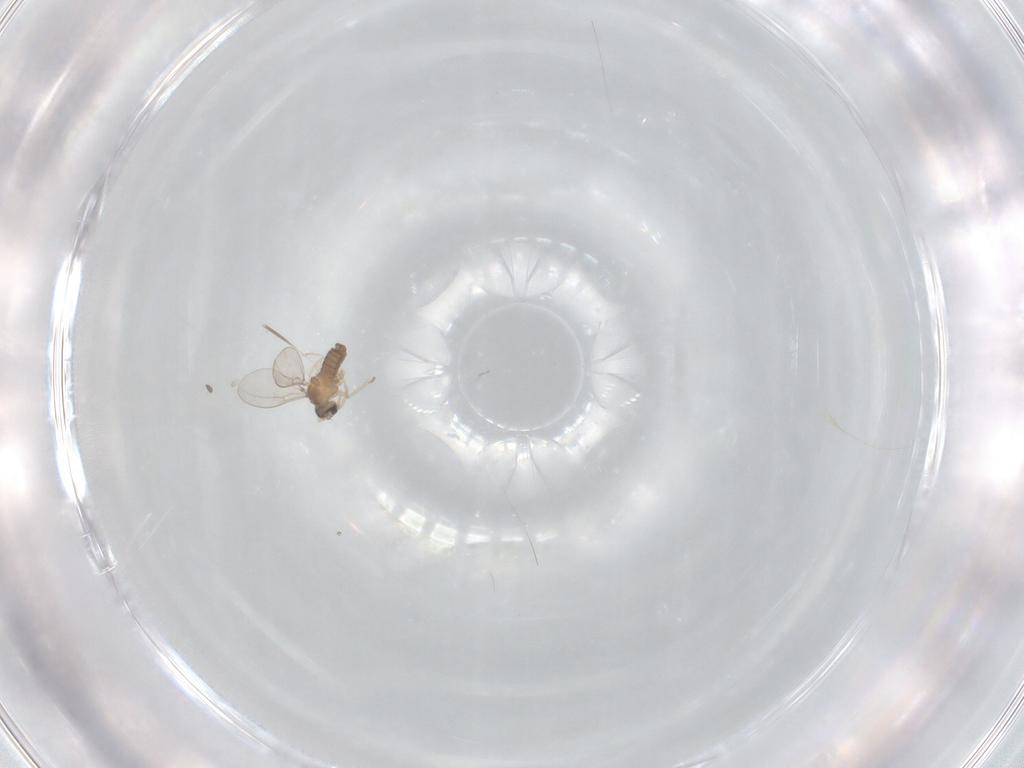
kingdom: Animalia
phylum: Arthropoda
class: Insecta
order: Diptera
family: Cecidomyiidae
